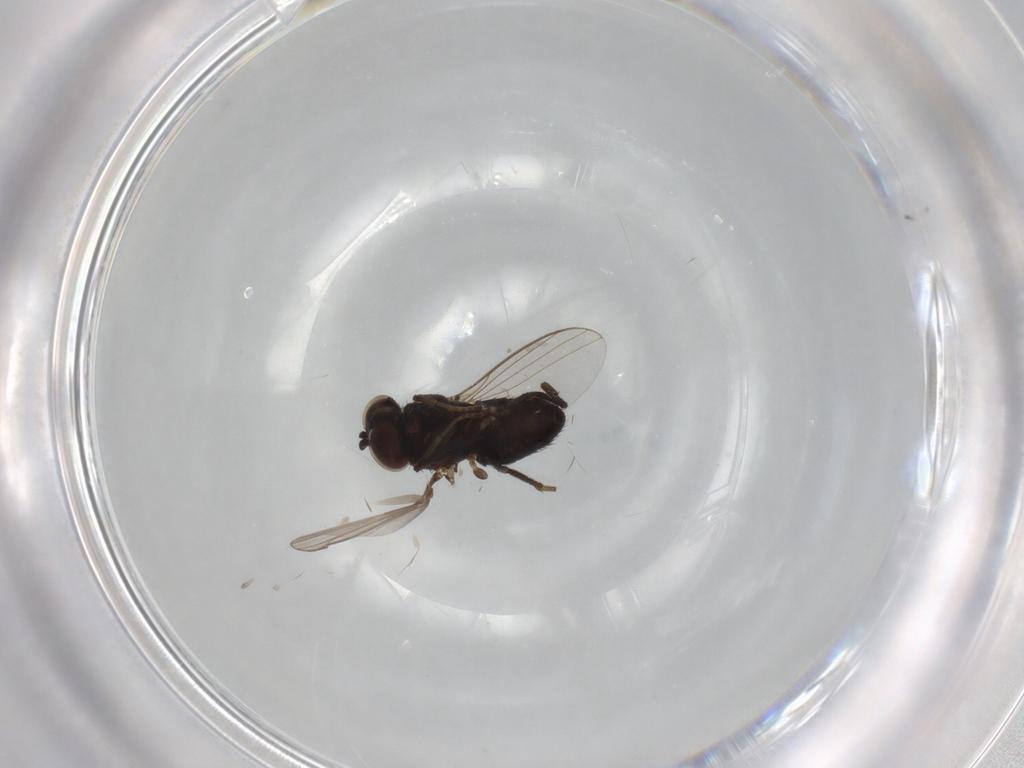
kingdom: Animalia
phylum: Arthropoda
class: Insecta
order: Diptera
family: Dolichopodidae
